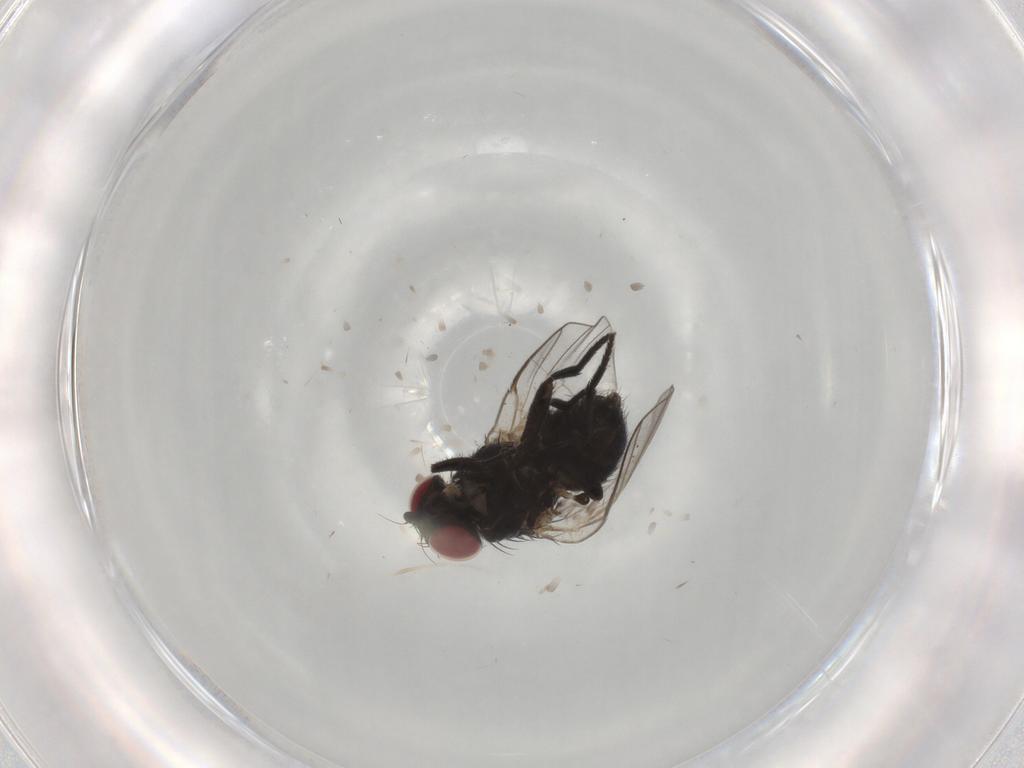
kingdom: Animalia
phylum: Arthropoda
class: Insecta
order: Diptera
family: Agromyzidae
